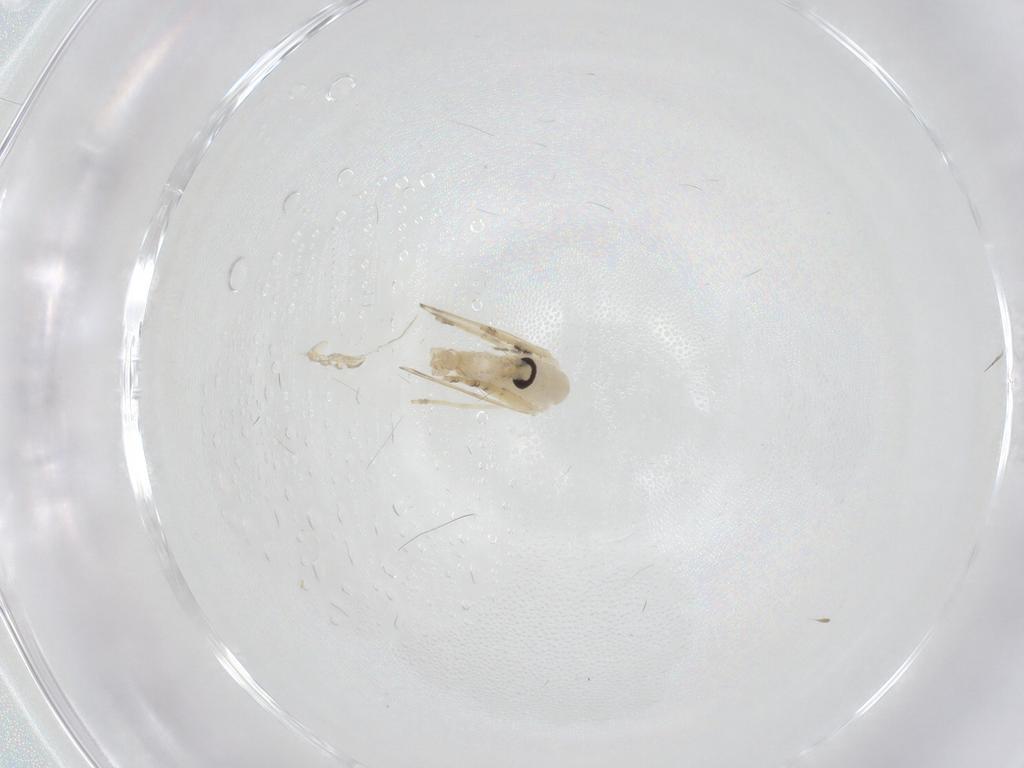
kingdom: Animalia
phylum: Arthropoda
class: Insecta
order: Diptera
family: Psychodidae
